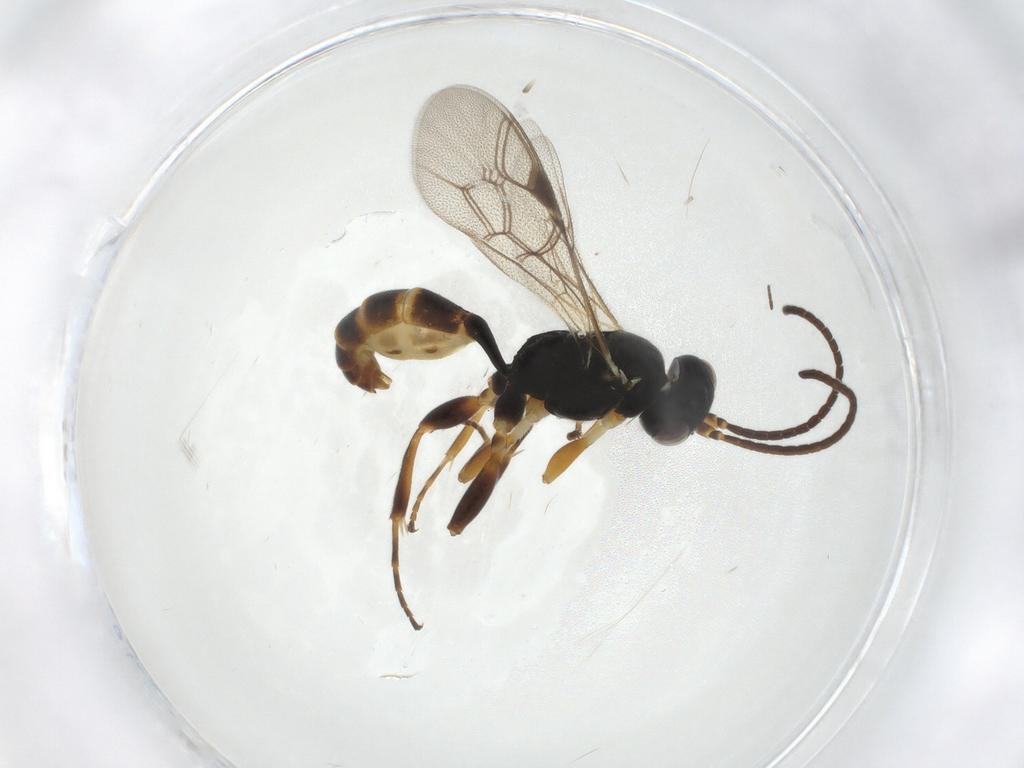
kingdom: Animalia
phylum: Arthropoda
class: Insecta
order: Hymenoptera
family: Ichneumonidae
